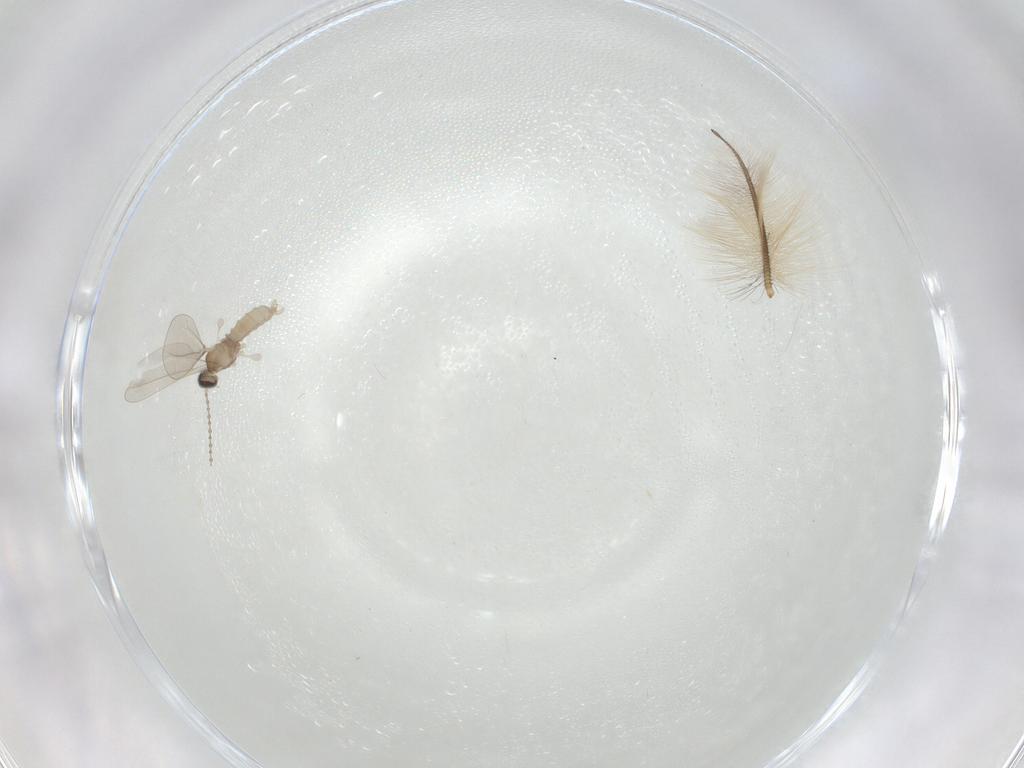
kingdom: Animalia
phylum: Arthropoda
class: Insecta
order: Diptera
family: Cecidomyiidae
